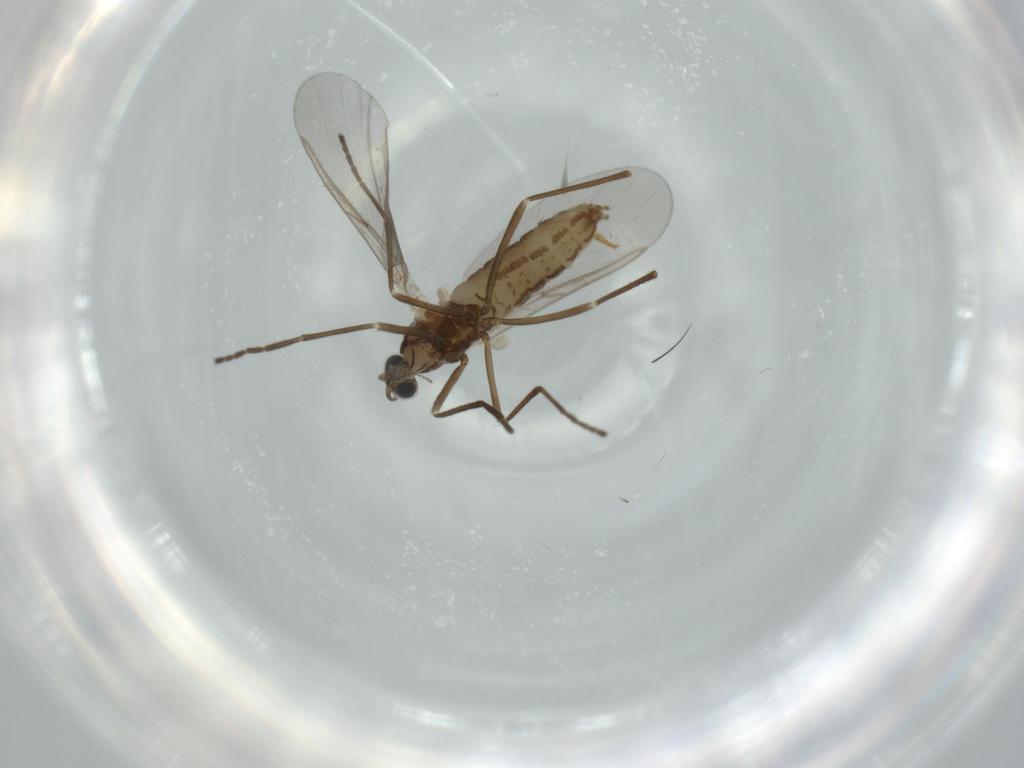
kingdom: Animalia
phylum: Arthropoda
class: Insecta
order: Diptera
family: Cecidomyiidae
